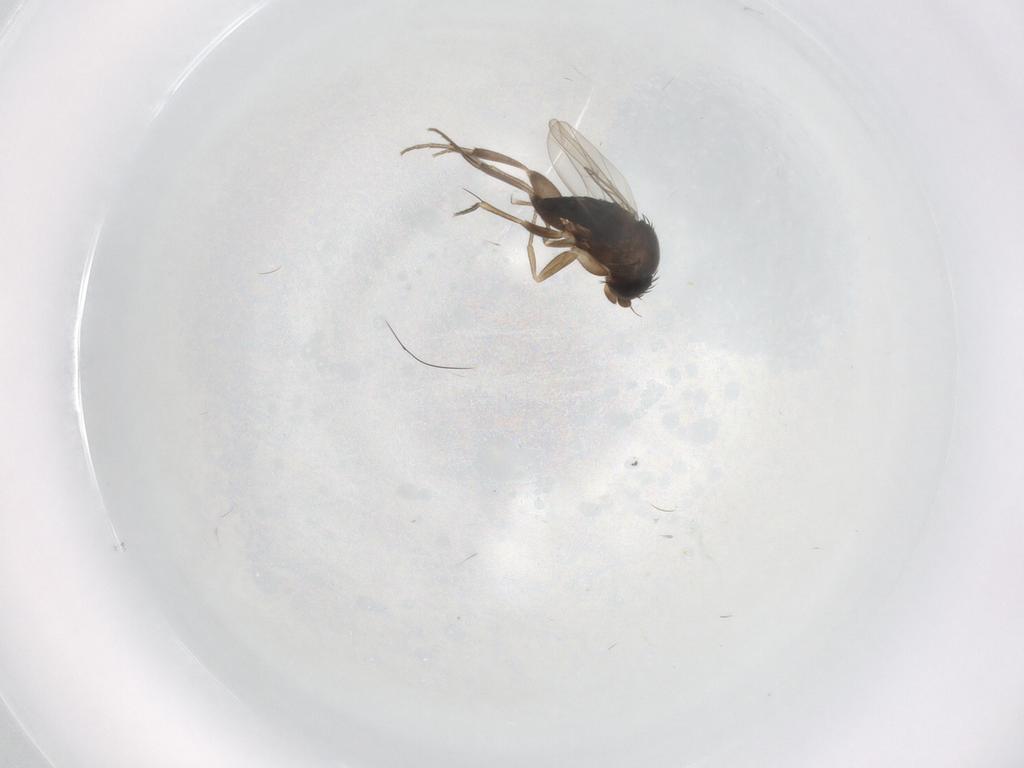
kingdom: Animalia
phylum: Arthropoda
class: Insecta
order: Diptera
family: Phoridae
